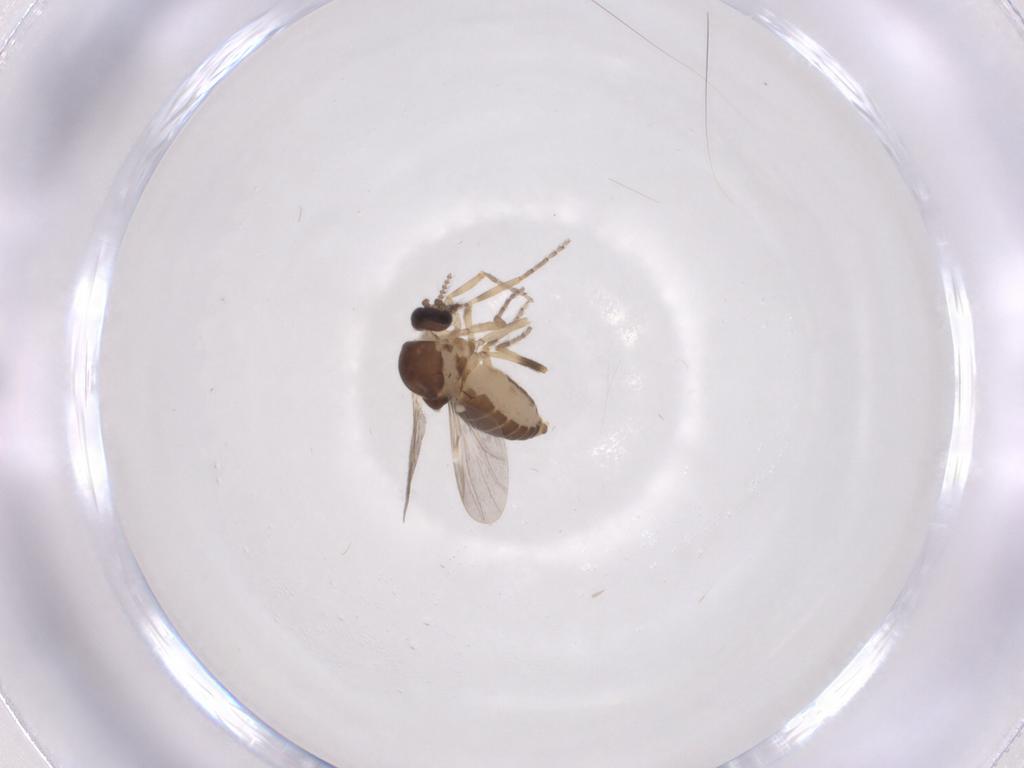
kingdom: Animalia
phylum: Arthropoda
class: Insecta
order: Diptera
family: Ceratopogonidae
